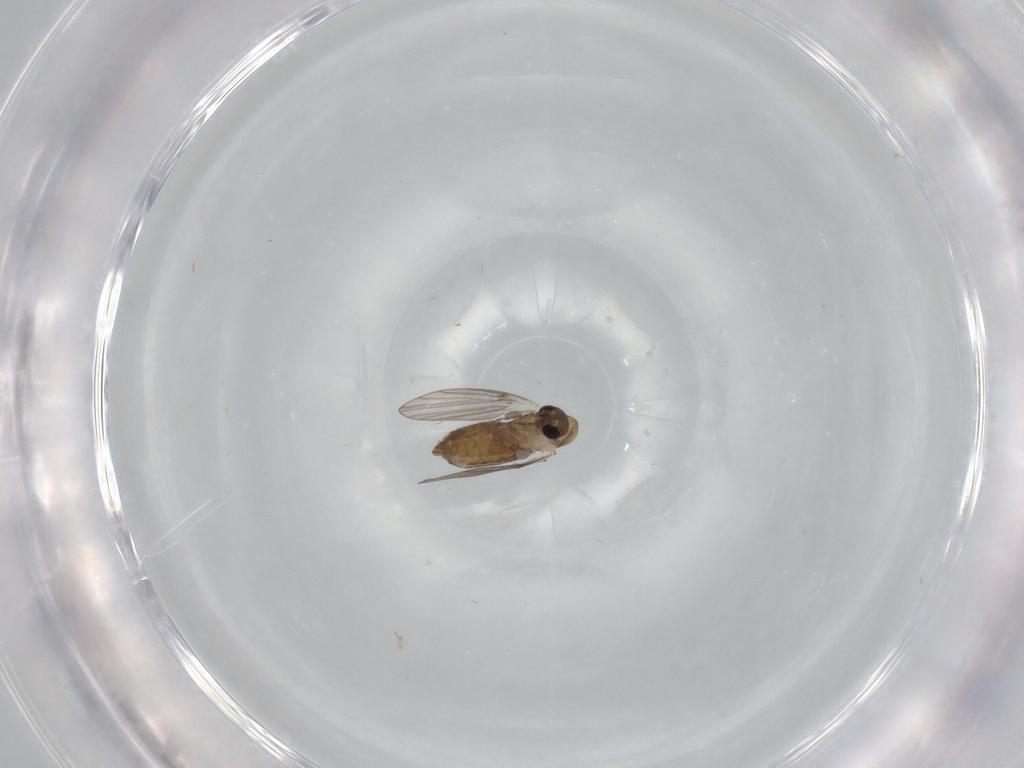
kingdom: Animalia
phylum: Arthropoda
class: Insecta
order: Diptera
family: Psychodidae
